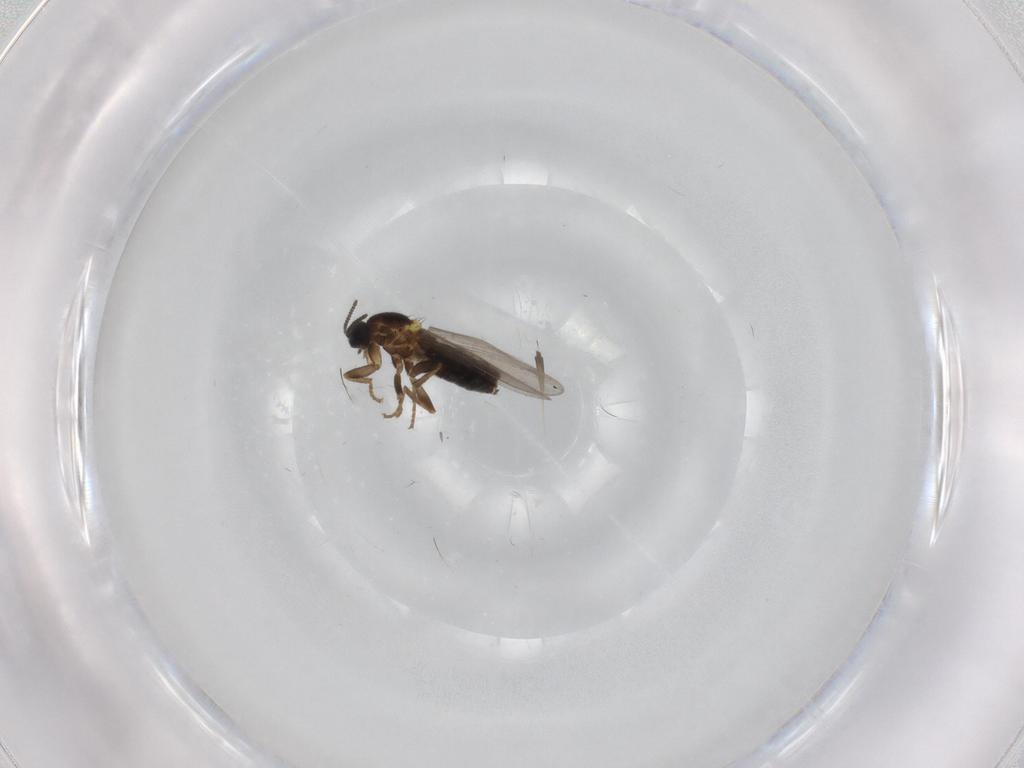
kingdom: Animalia
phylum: Arthropoda
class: Insecta
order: Diptera
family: Scatopsidae
